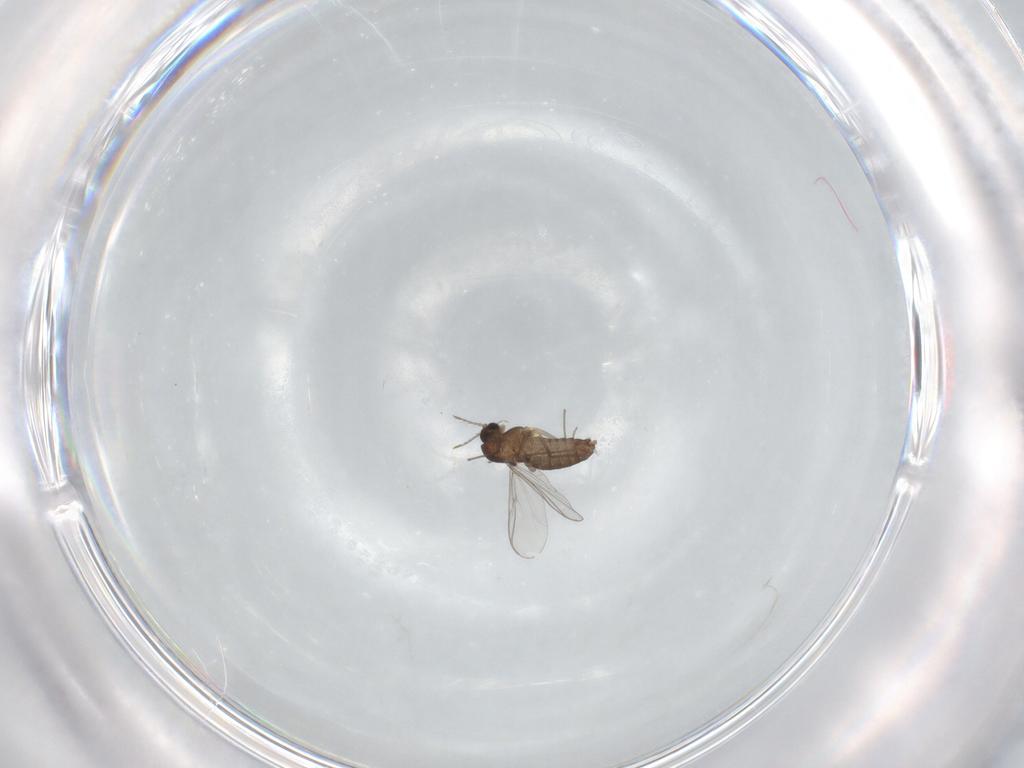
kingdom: Animalia
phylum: Arthropoda
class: Insecta
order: Diptera
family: Chironomidae
